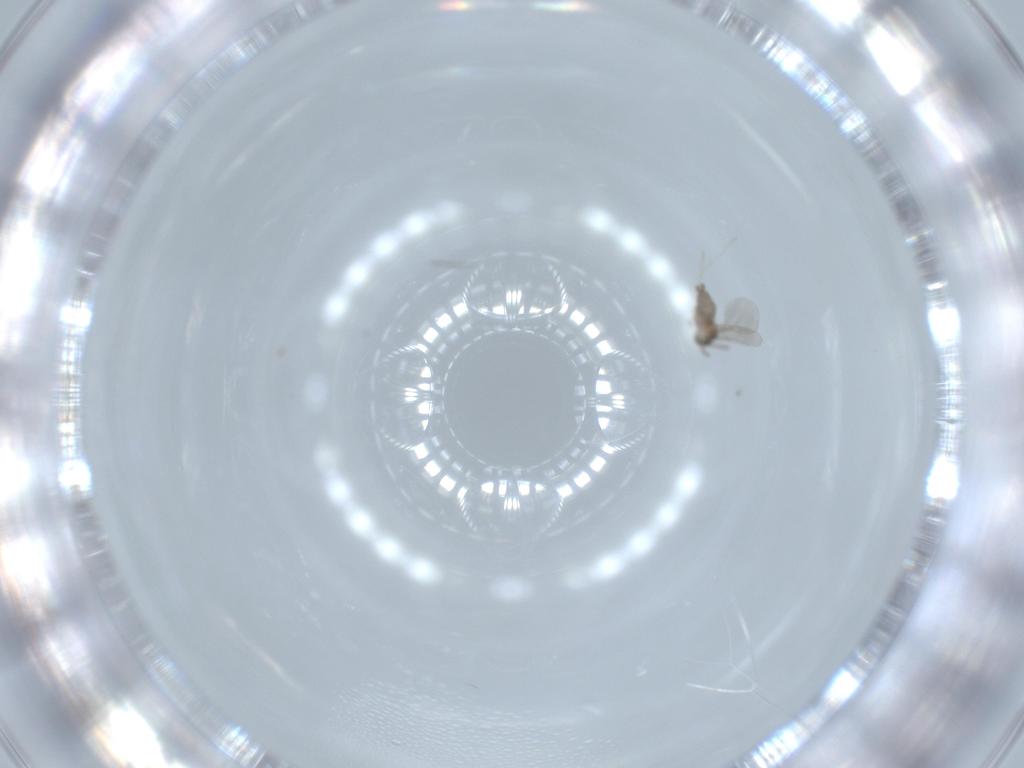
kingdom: Animalia
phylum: Arthropoda
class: Insecta
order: Diptera
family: Cecidomyiidae
